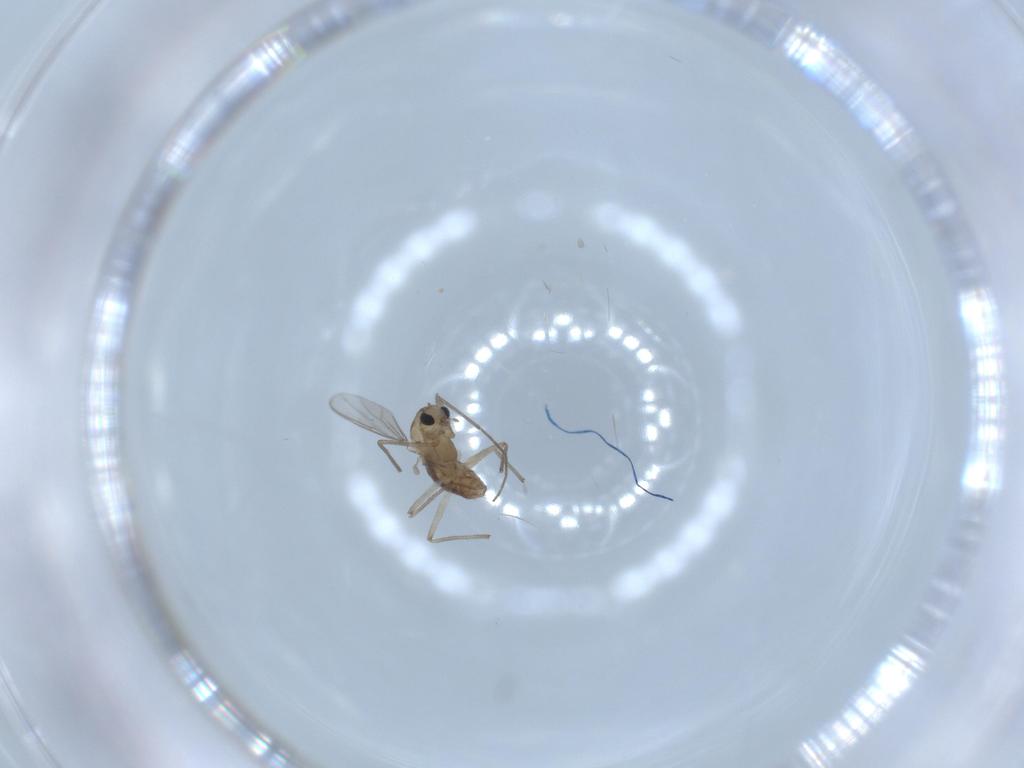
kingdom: Animalia
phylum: Arthropoda
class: Insecta
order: Diptera
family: Chironomidae
